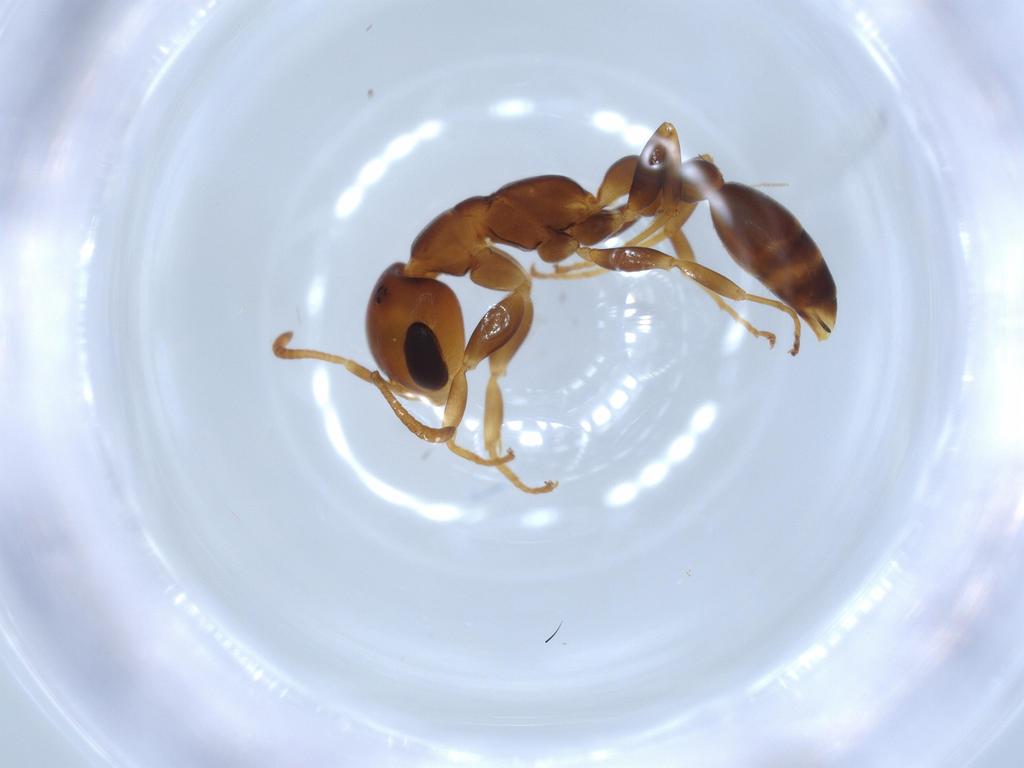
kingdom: Animalia
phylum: Arthropoda
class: Insecta
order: Hymenoptera
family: Formicidae
